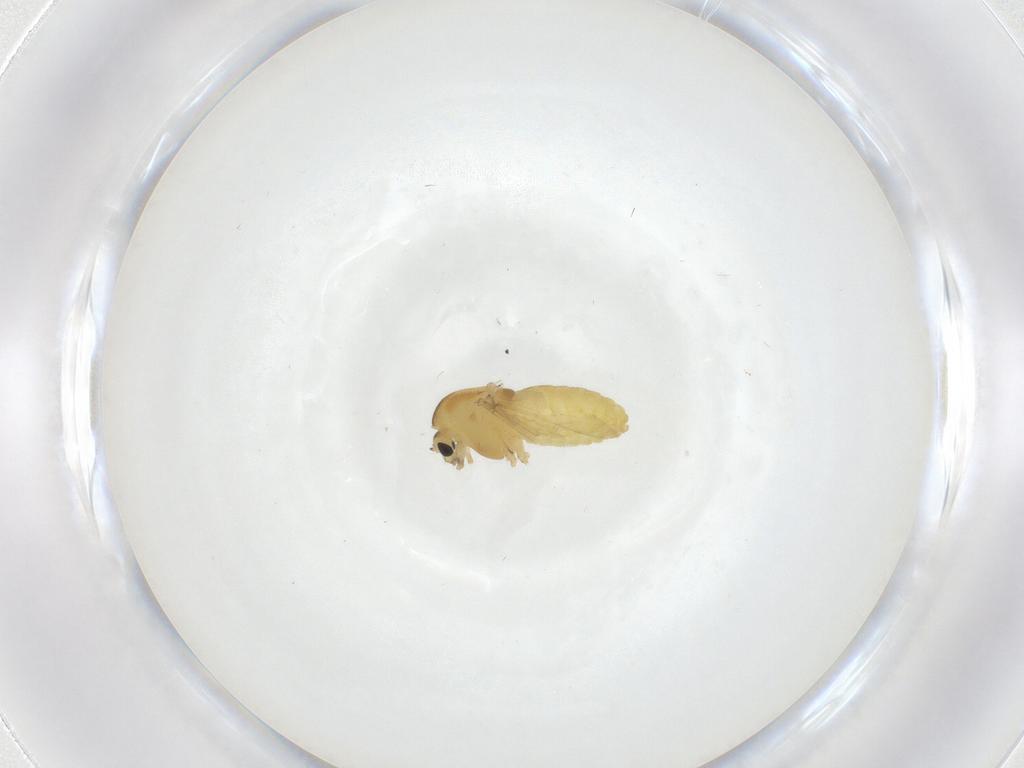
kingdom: Animalia
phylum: Arthropoda
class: Insecta
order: Diptera
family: Chironomidae
